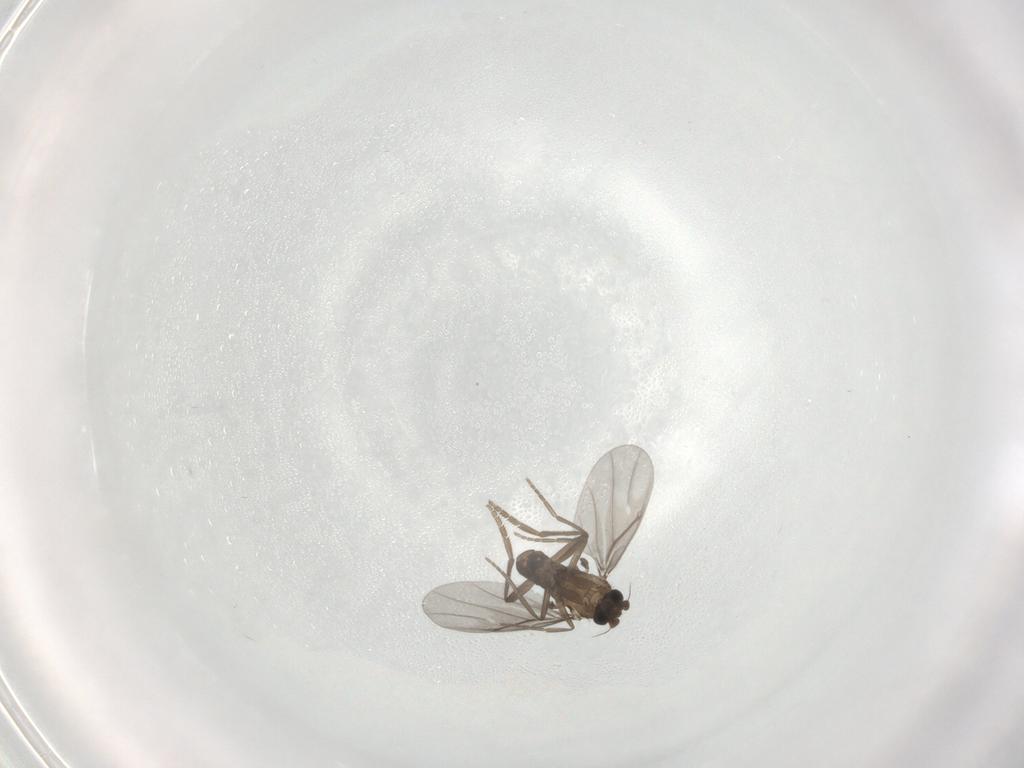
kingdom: Animalia
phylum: Arthropoda
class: Insecta
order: Diptera
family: Cecidomyiidae
